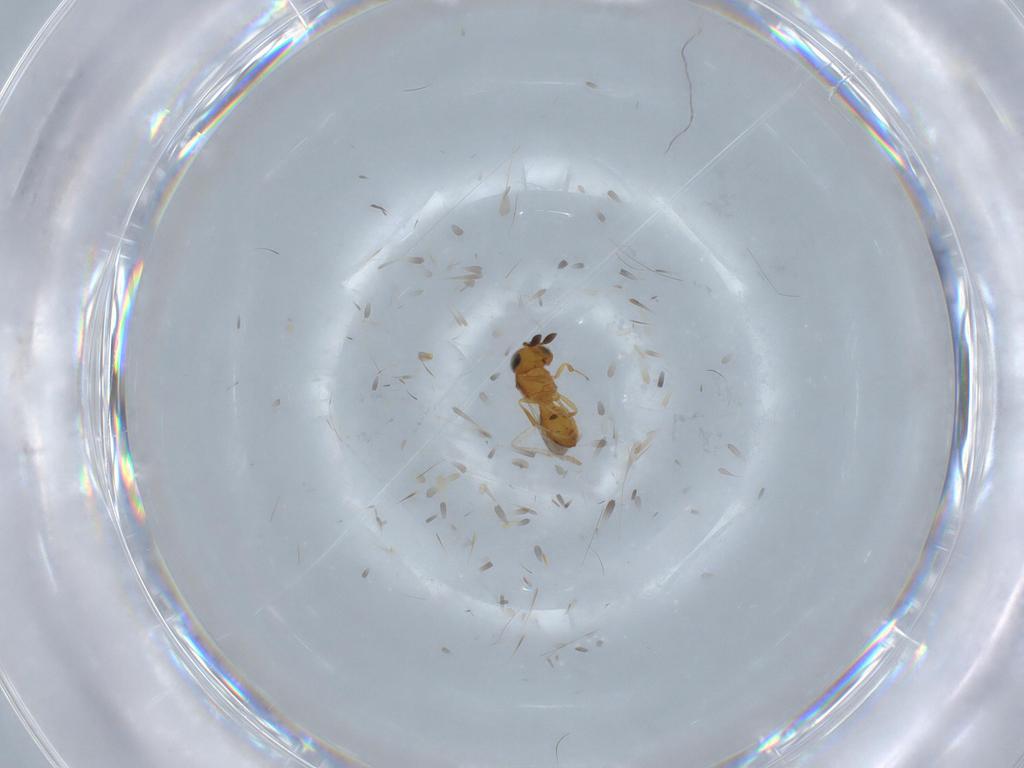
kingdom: Animalia
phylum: Arthropoda
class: Insecta
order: Hymenoptera
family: Scelionidae
